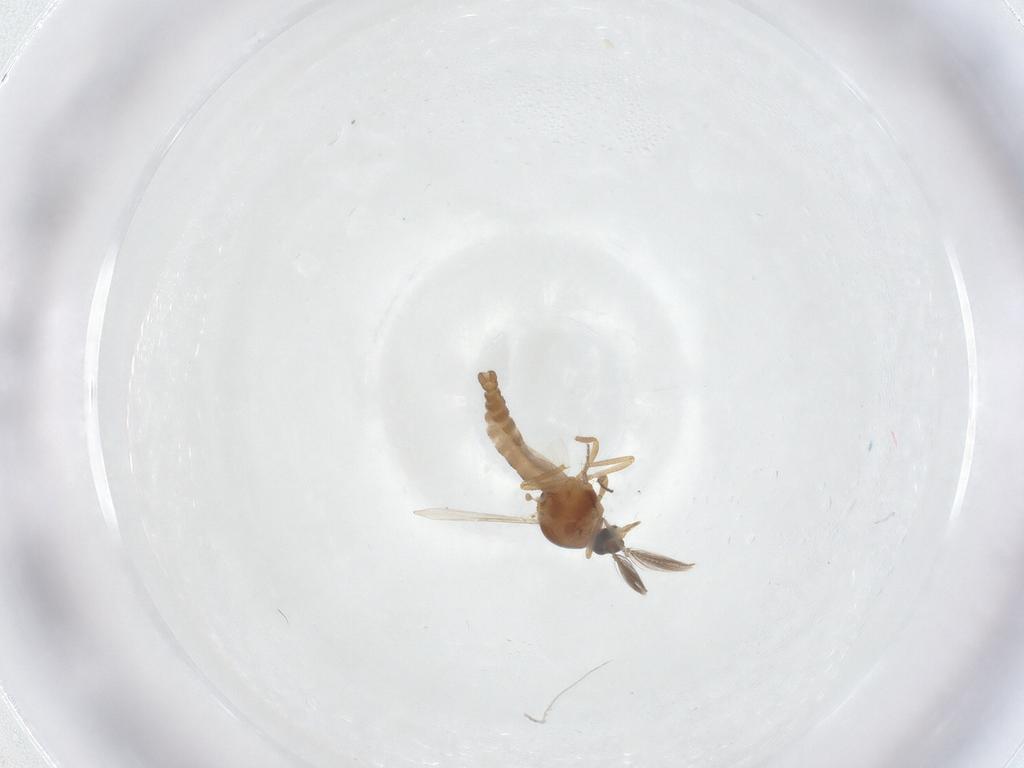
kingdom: Animalia
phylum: Arthropoda
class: Insecta
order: Diptera
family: Ceratopogonidae
